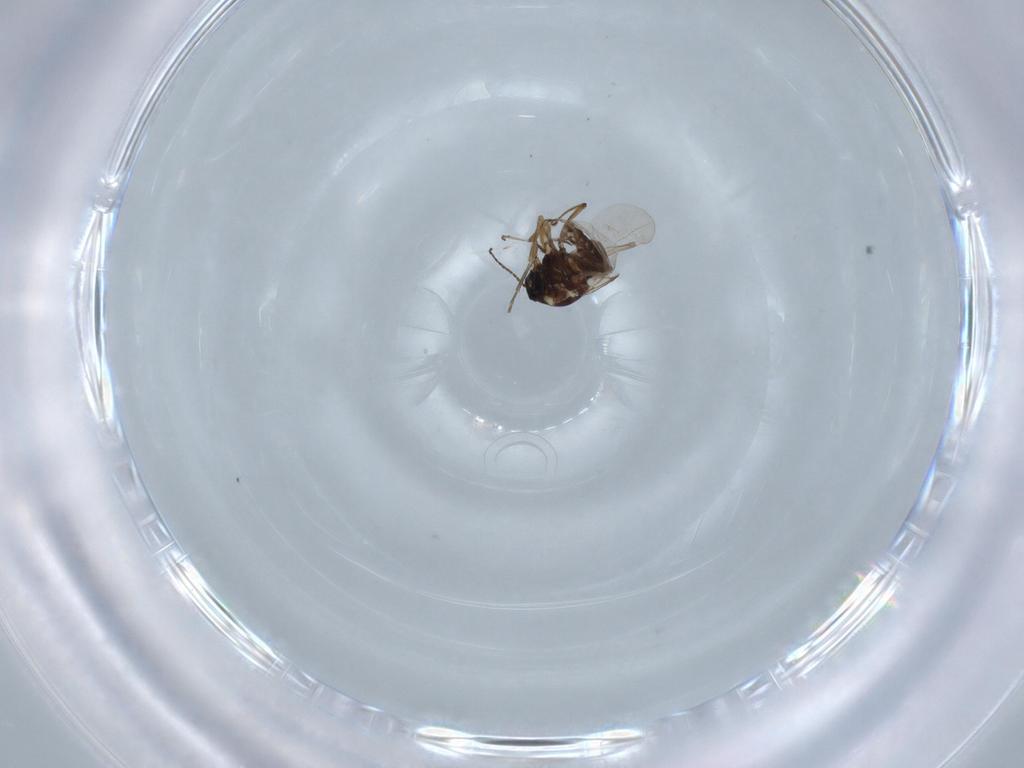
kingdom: Animalia
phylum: Arthropoda
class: Insecta
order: Diptera
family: Ceratopogonidae
